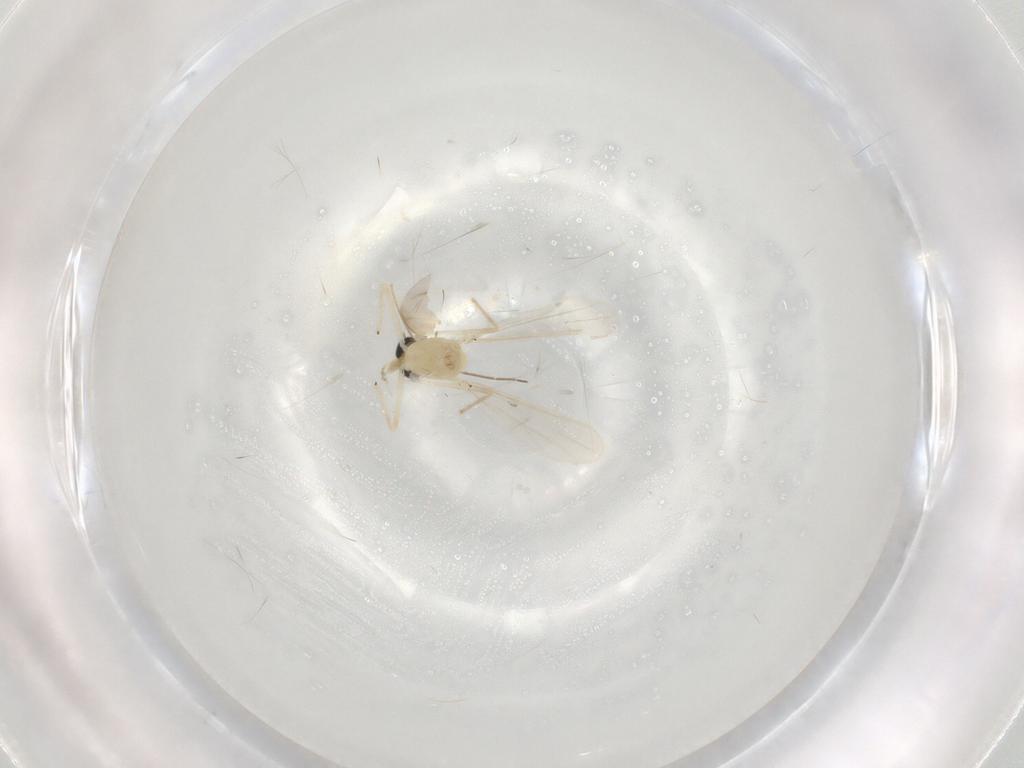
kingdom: Animalia
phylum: Arthropoda
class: Insecta
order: Diptera
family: Chironomidae
